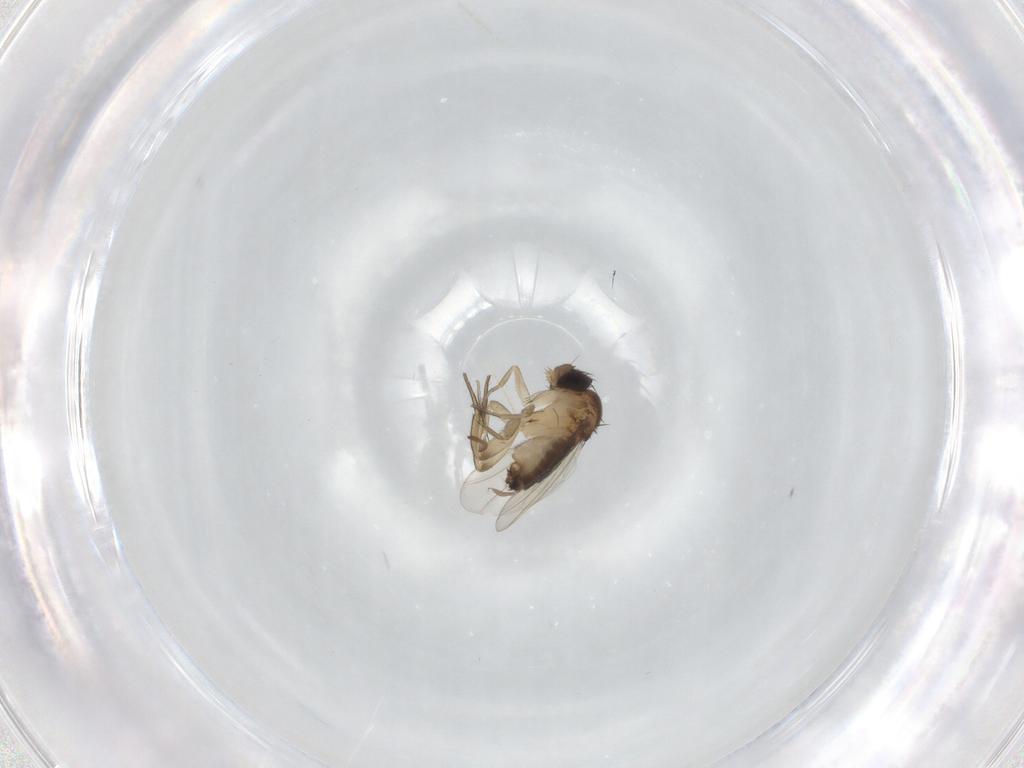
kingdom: Animalia
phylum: Arthropoda
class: Insecta
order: Diptera
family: Phoridae
